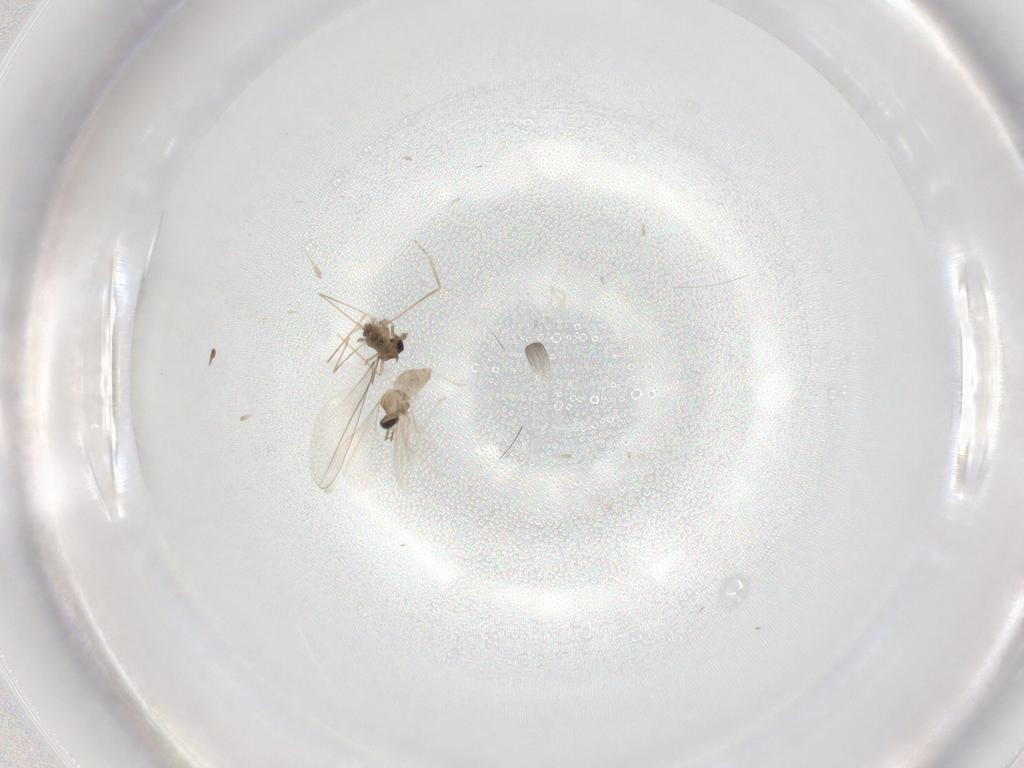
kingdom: Animalia
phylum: Arthropoda
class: Insecta
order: Diptera
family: Cecidomyiidae
